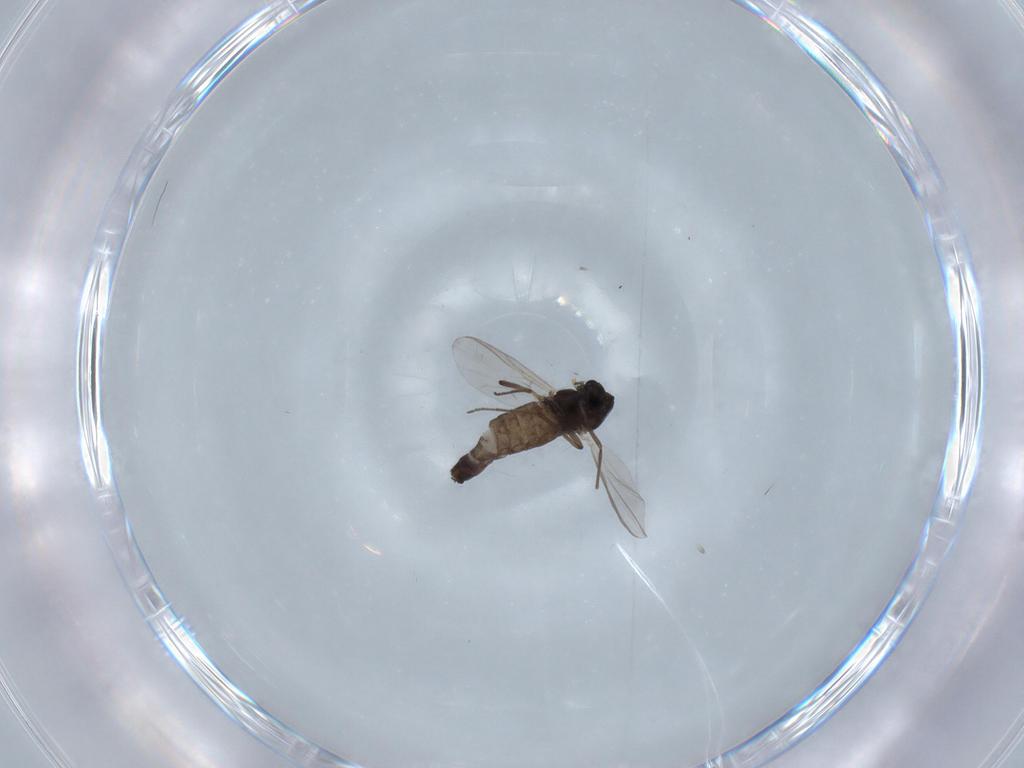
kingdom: Animalia
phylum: Arthropoda
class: Insecta
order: Diptera
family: Chironomidae
